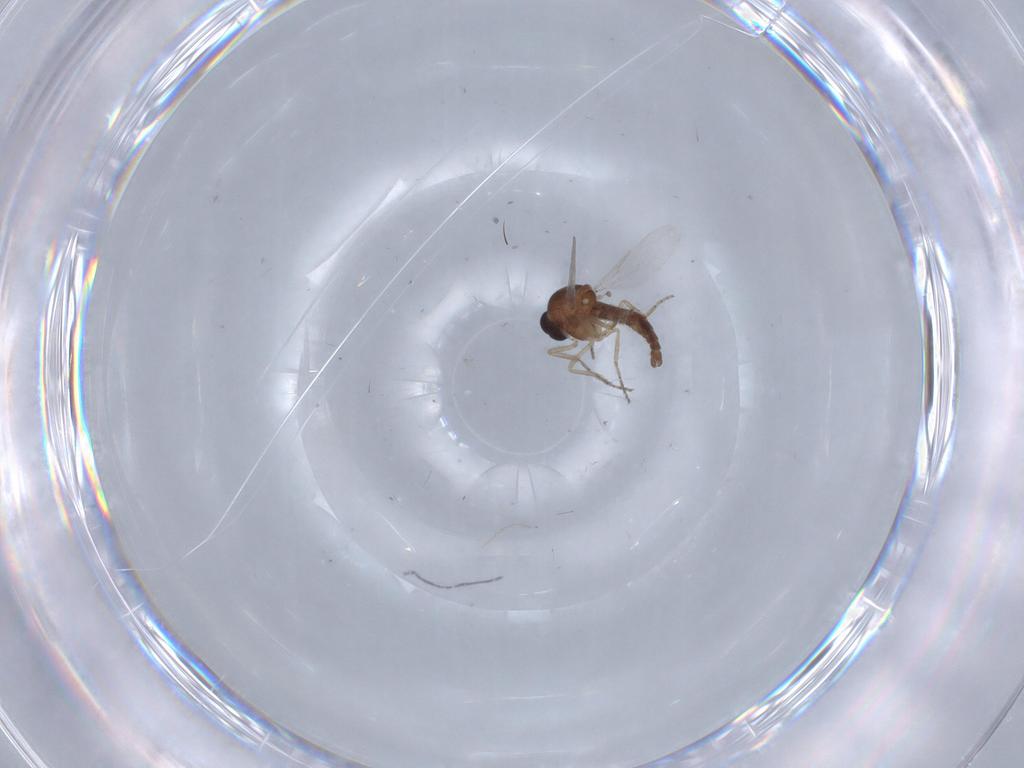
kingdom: Animalia
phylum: Arthropoda
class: Insecta
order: Diptera
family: Ceratopogonidae
